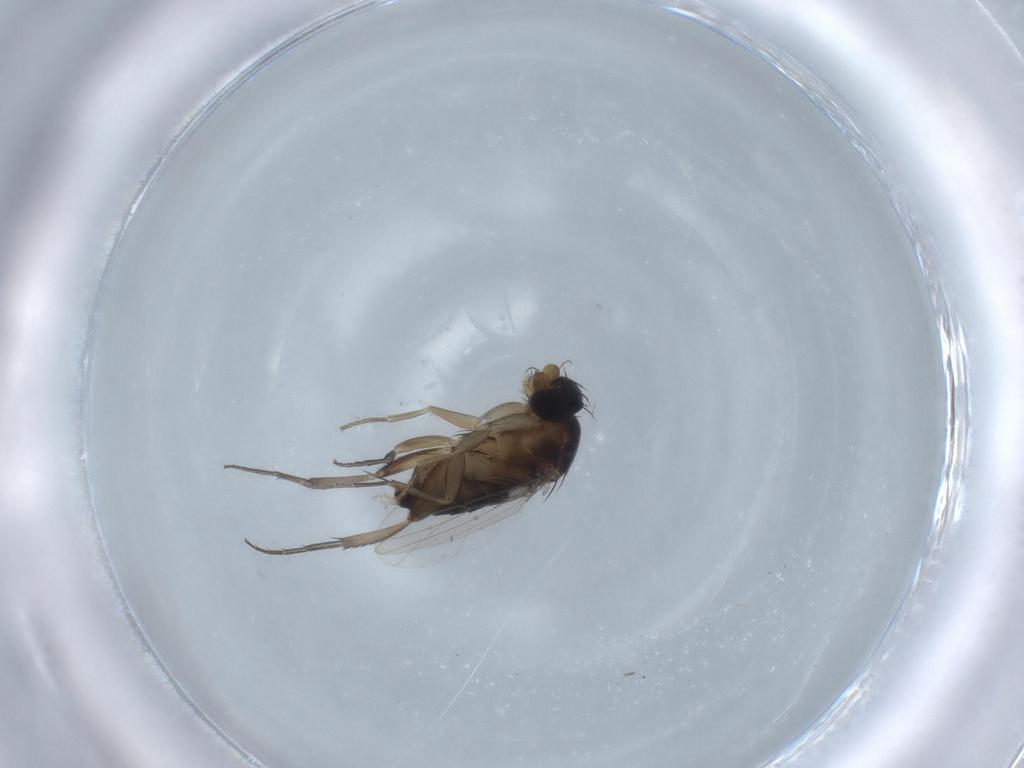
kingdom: Animalia
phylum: Arthropoda
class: Insecta
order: Diptera
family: Phoridae
